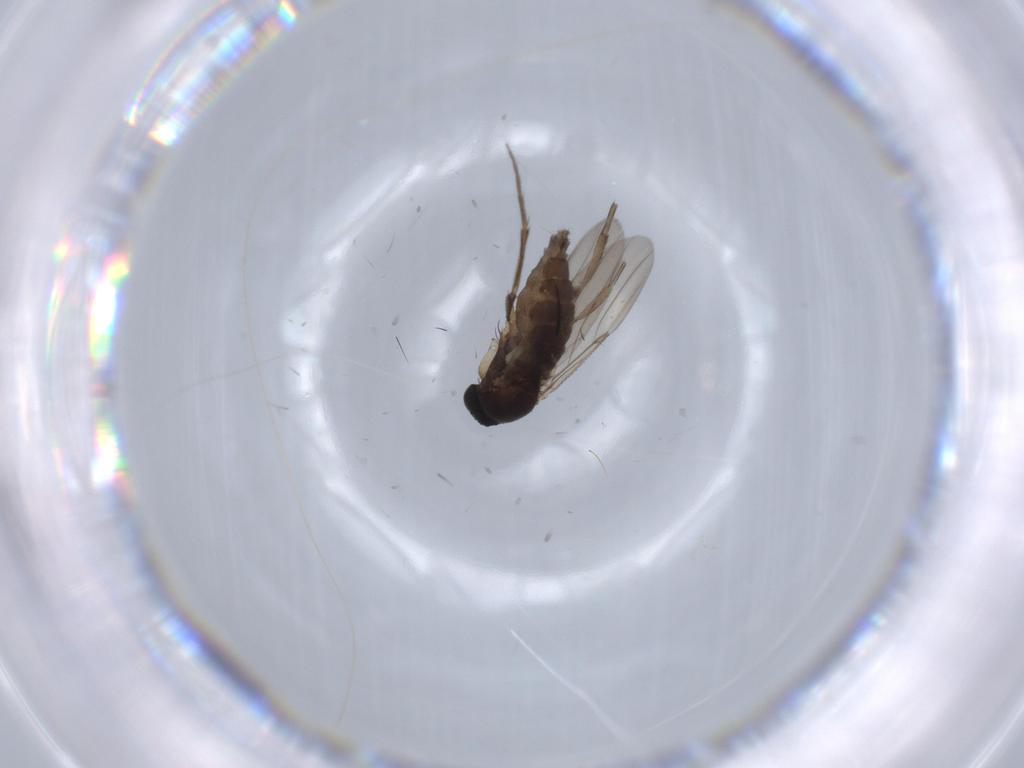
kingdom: Animalia
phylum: Arthropoda
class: Insecta
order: Diptera
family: Phoridae
